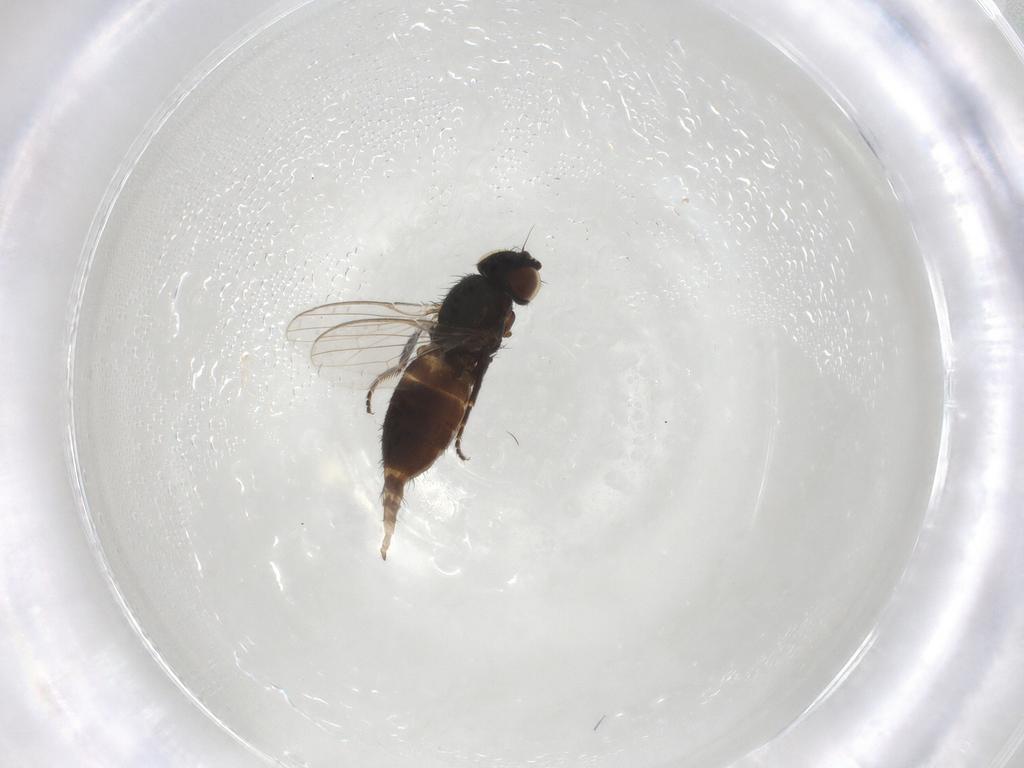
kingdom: Animalia
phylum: Arthropoda
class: Insecta
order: Diptera
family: Milichiidae
